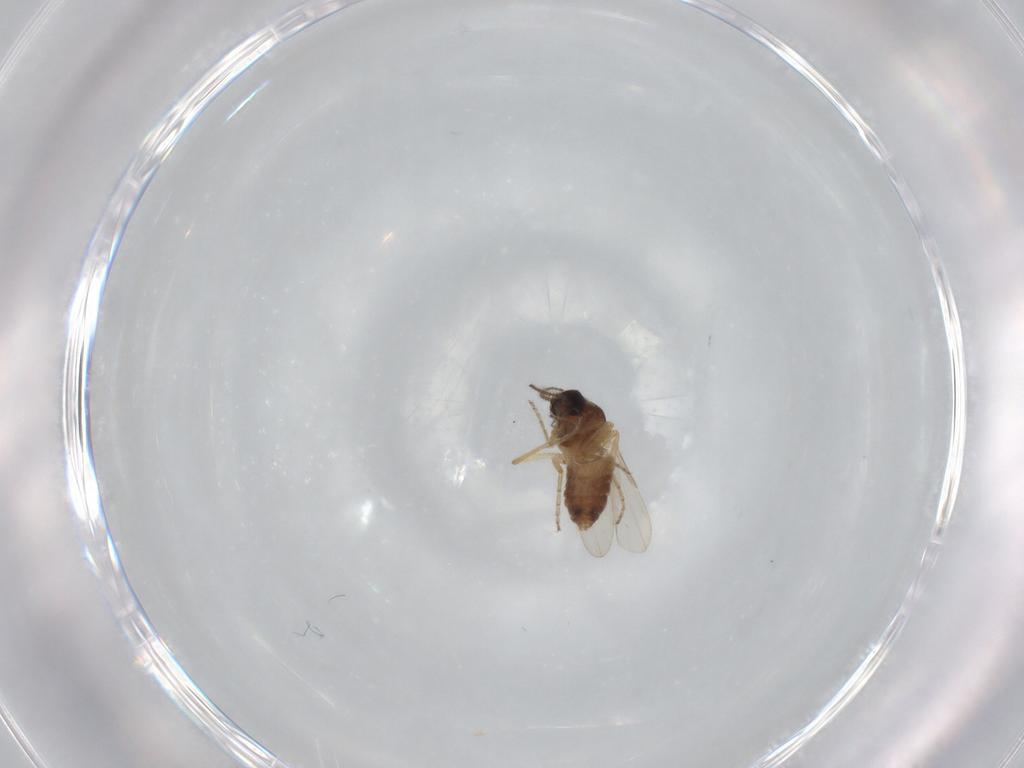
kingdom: Animalia
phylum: Arthropoda
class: Insecta
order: Diptera
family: Ceratopogonidae
